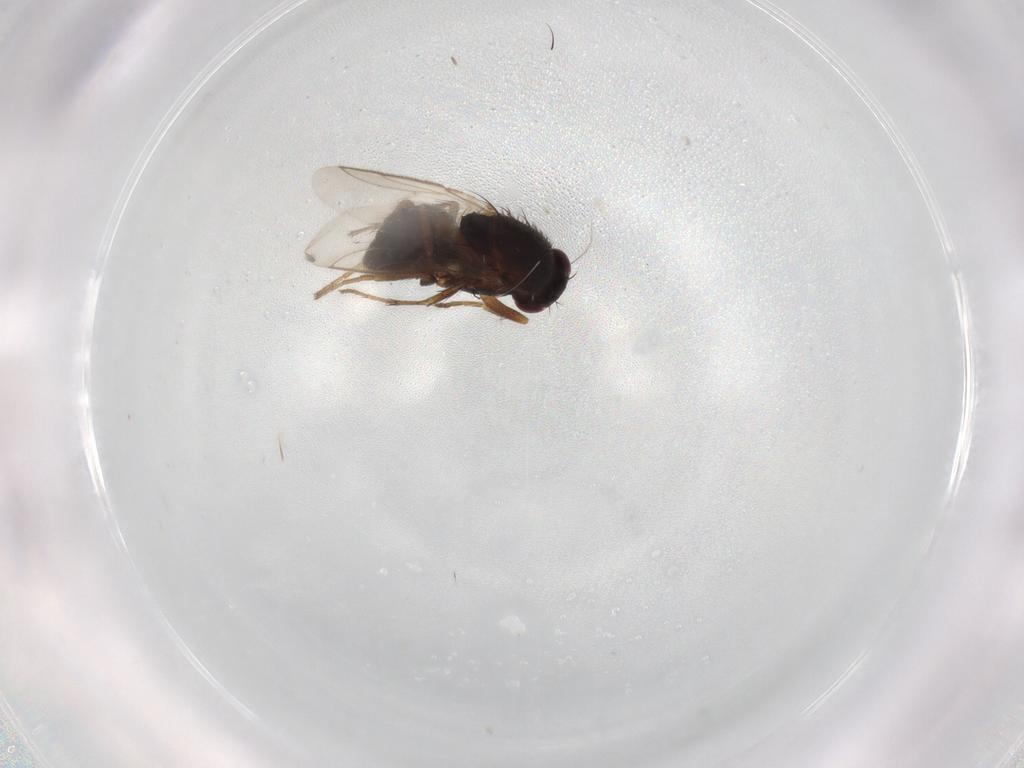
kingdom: Animalia
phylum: Arthropoda
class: Insecta
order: Diptera
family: Sphaeroceridae
